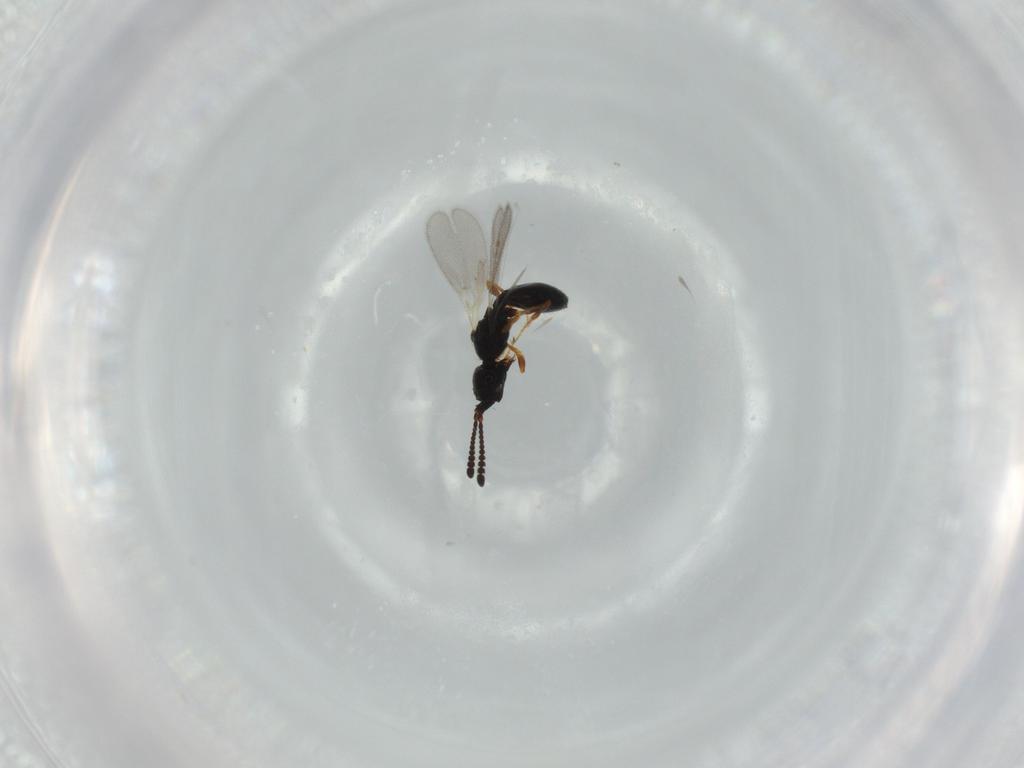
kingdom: Animalia
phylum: Arthropoda
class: Insecta
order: Hymenoptera
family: Diapriidae
